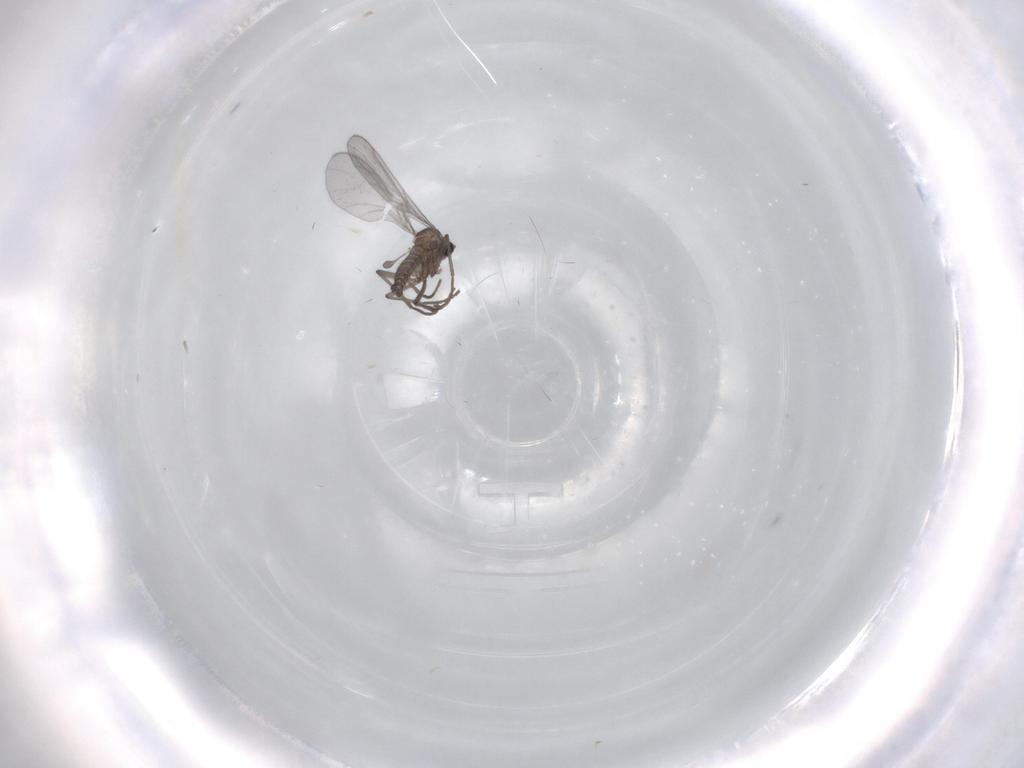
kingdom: Animalia
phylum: Arthropoda
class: Insecta
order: Diptera
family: Sciaridae
